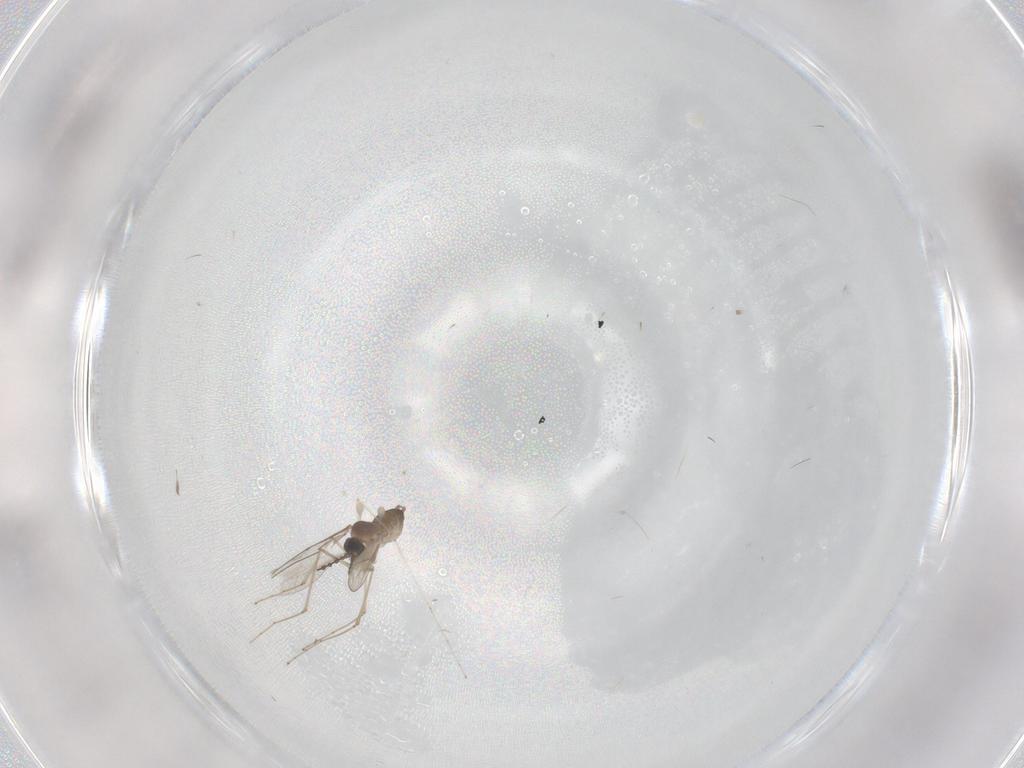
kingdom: Animalia
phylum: Arthropoda
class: Insecta
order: Diptera
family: Cecidomyiidae
